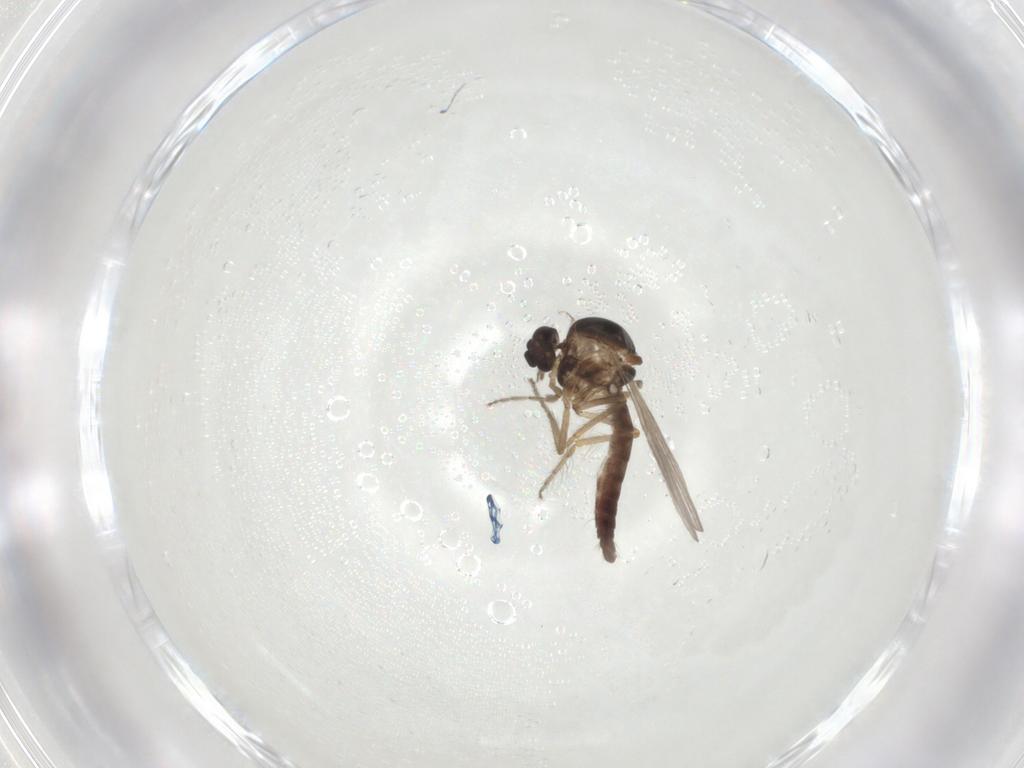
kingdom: Animalia
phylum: Arthropoda
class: Insecta
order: Diptera
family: Ceratopogonidae
